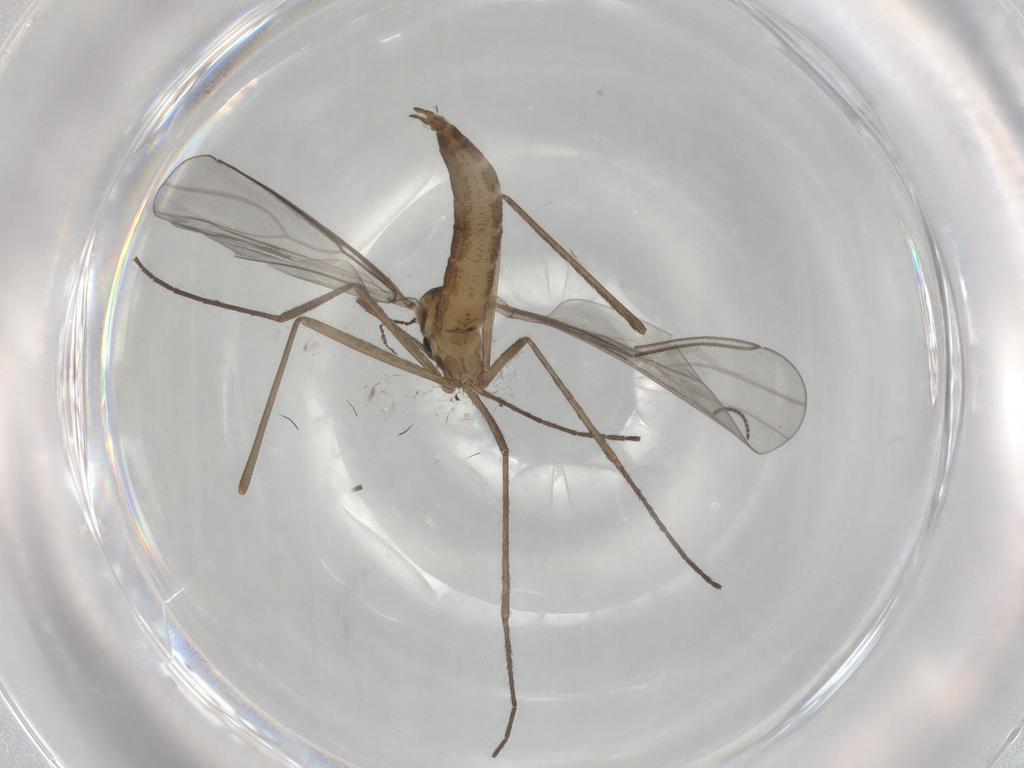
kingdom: Animalia
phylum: Arthropoda
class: Insecta
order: Diptera
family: Cecidomyiidae
